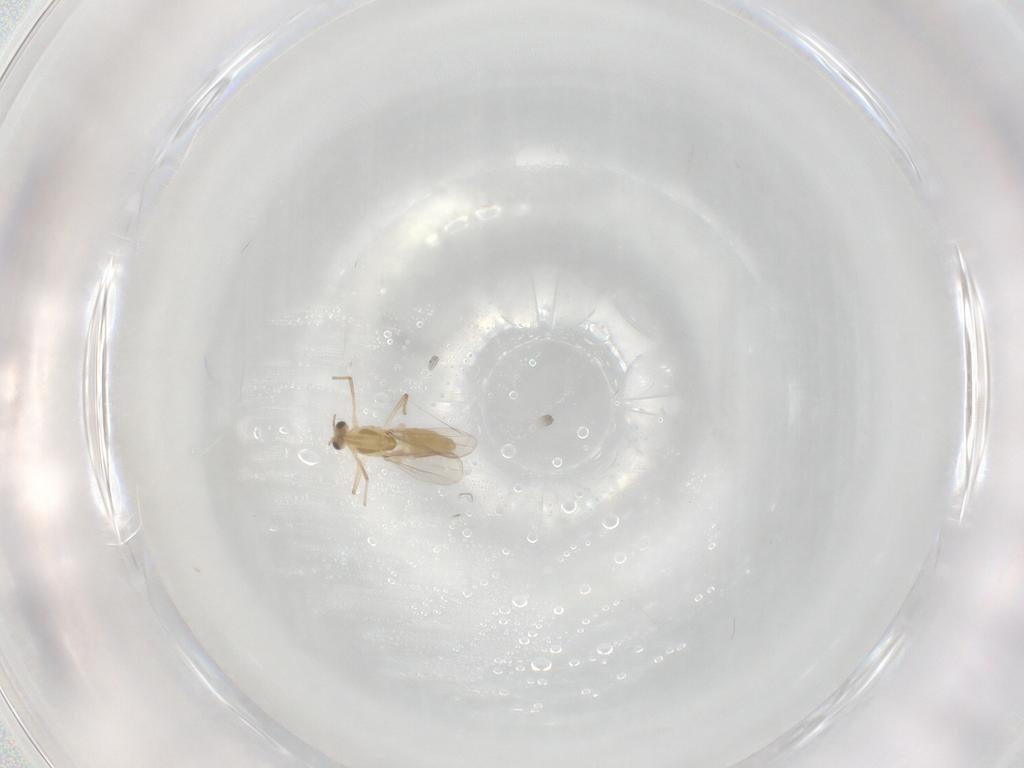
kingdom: Animalia
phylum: Arthropoda
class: Insecta
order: Diptera
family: Chironomidae
